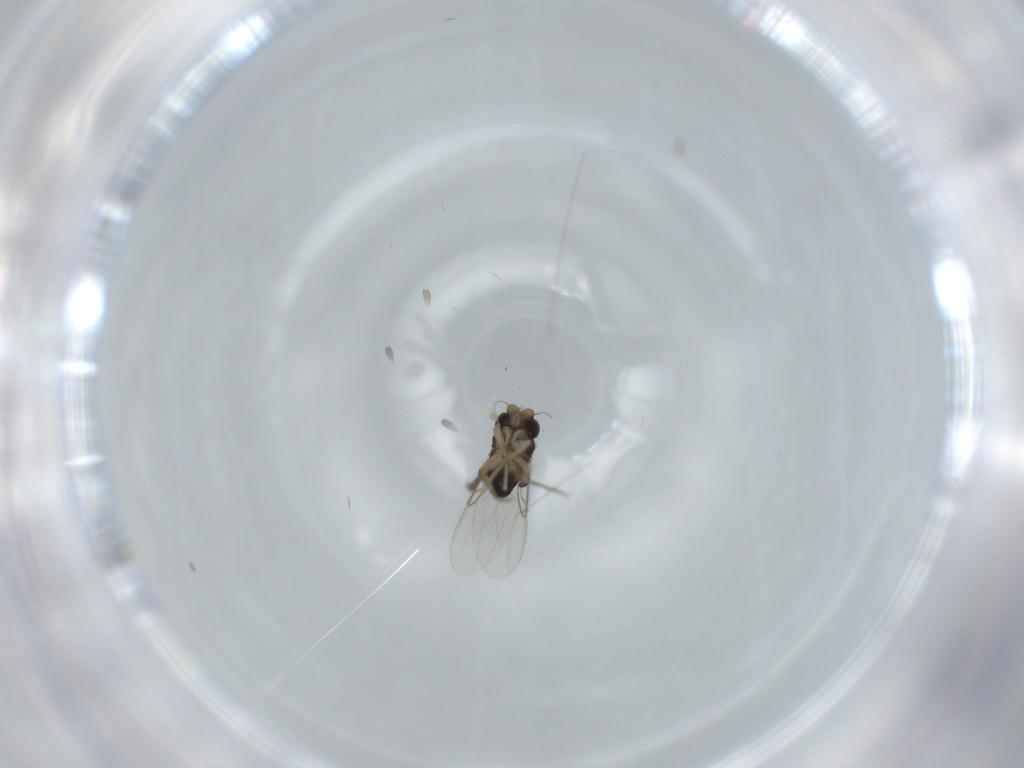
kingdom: Animalia
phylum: Arthropoda
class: Insecta
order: Diptera
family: Phoridae
